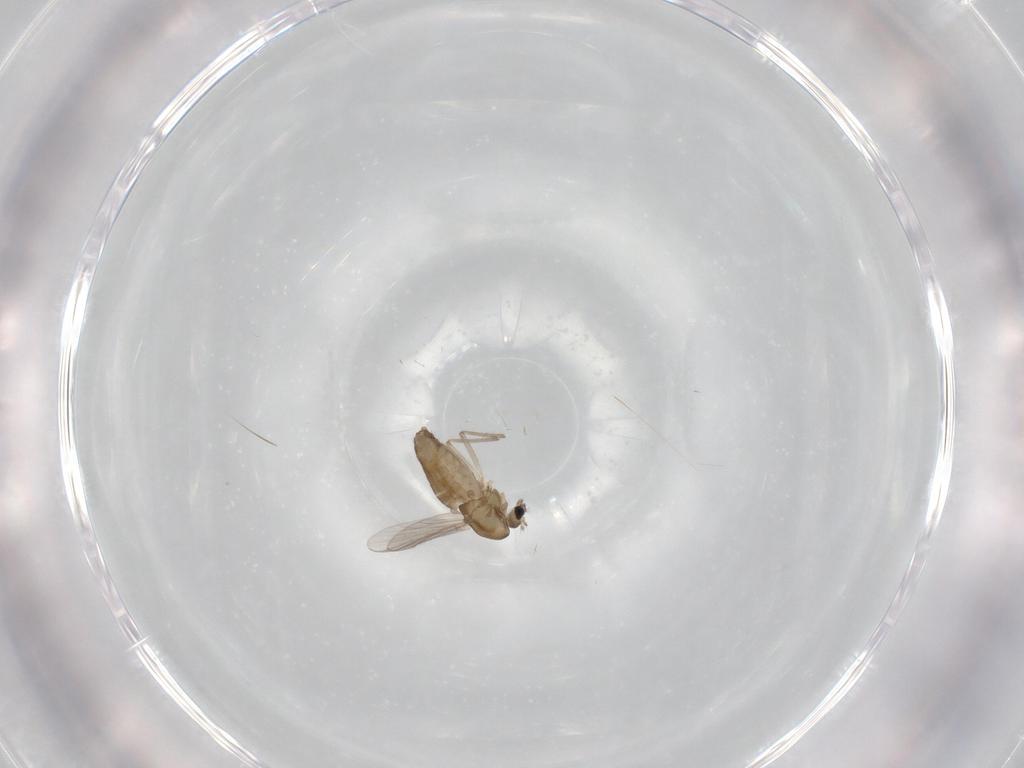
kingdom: Animalia
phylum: Arthropoda
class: Insecta
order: Diptera
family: Chironomidae
